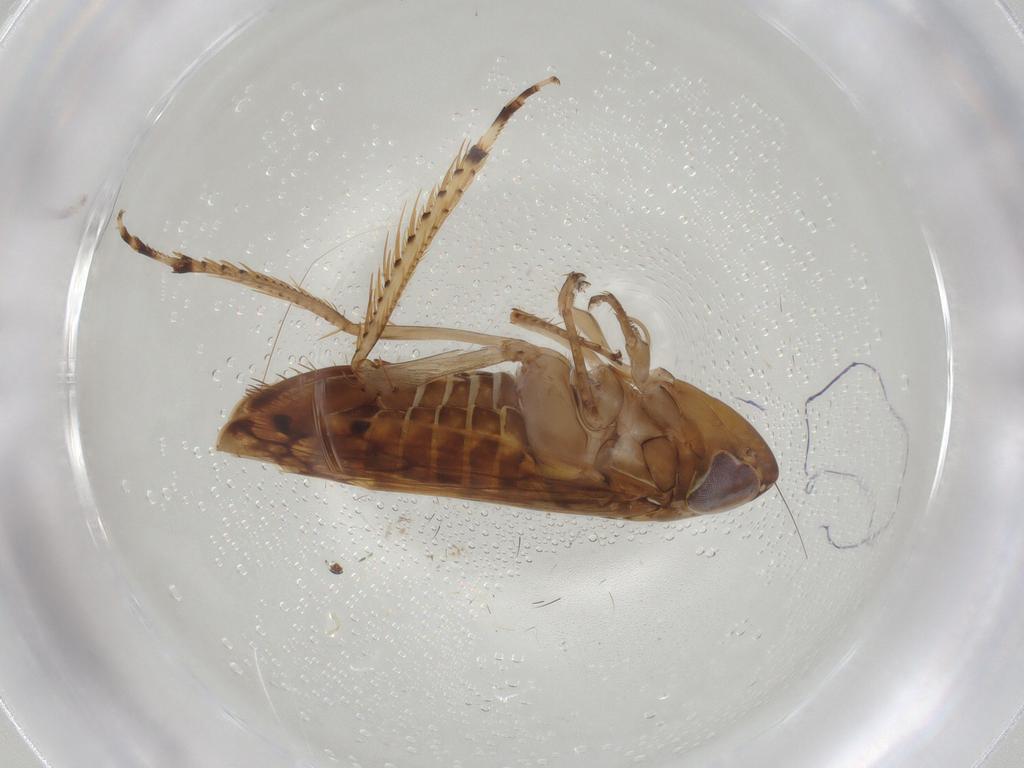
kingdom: Animalia
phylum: Arthropoda
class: Insecta
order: Hemiptera
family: Cicadellidae
